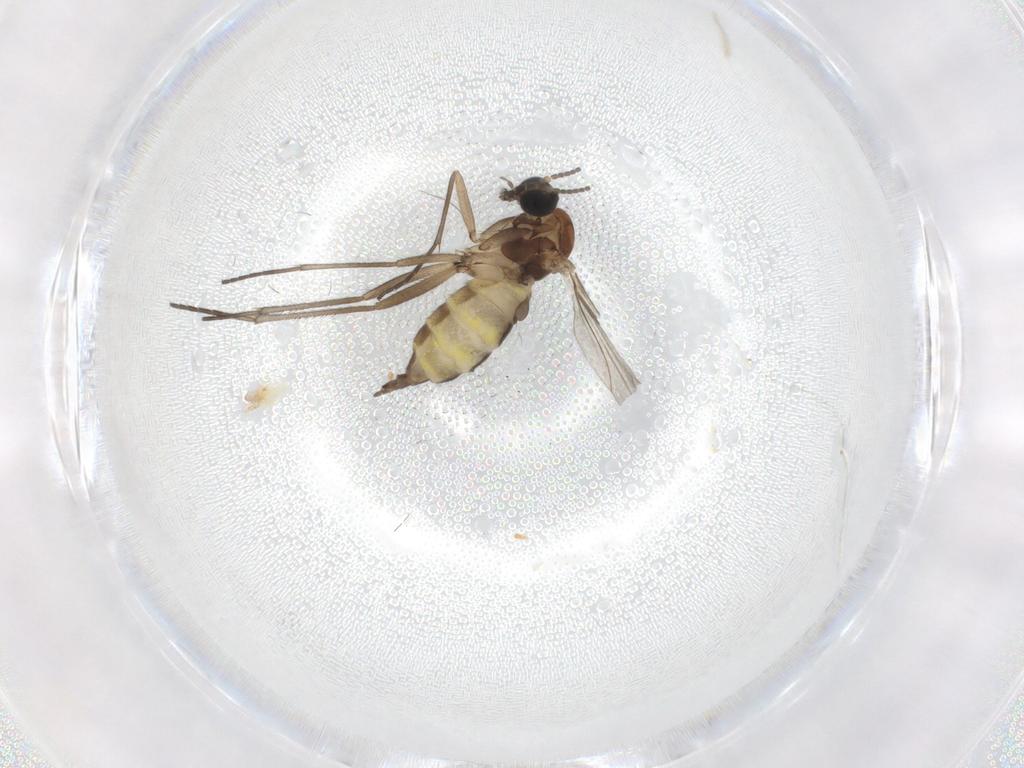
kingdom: Animalia
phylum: Arthropoda
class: Insecta
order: Diptera
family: Sciaridae
